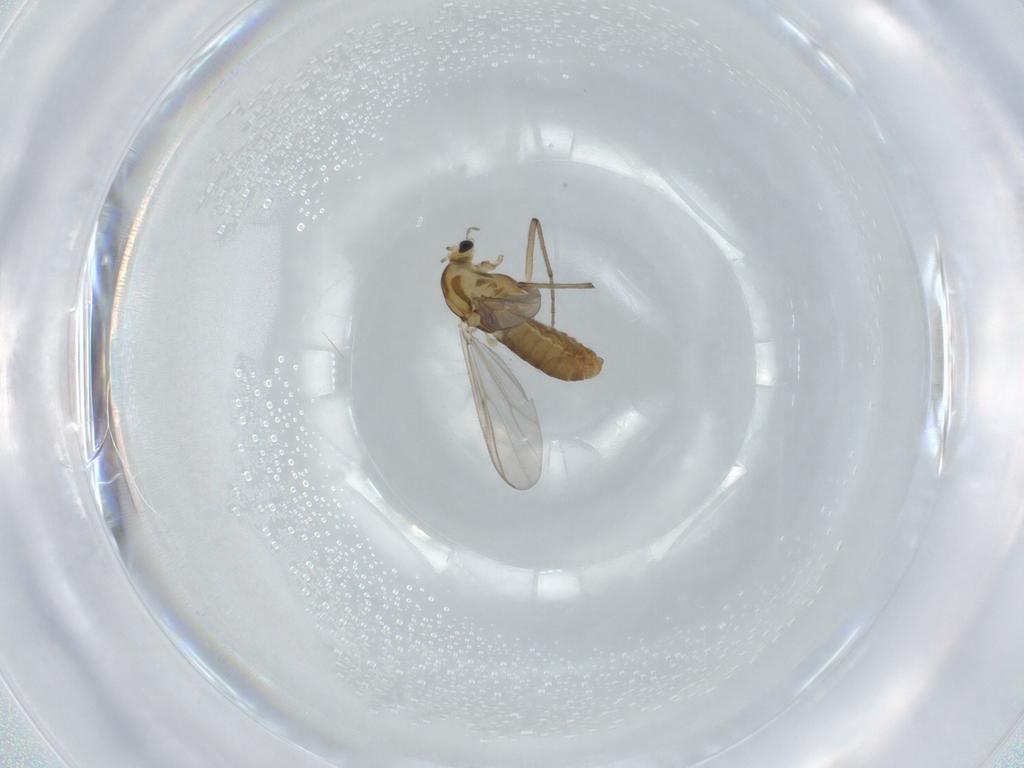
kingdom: Animalia
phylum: Arthropoda
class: Insecta
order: Diptera
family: Chironomidae
